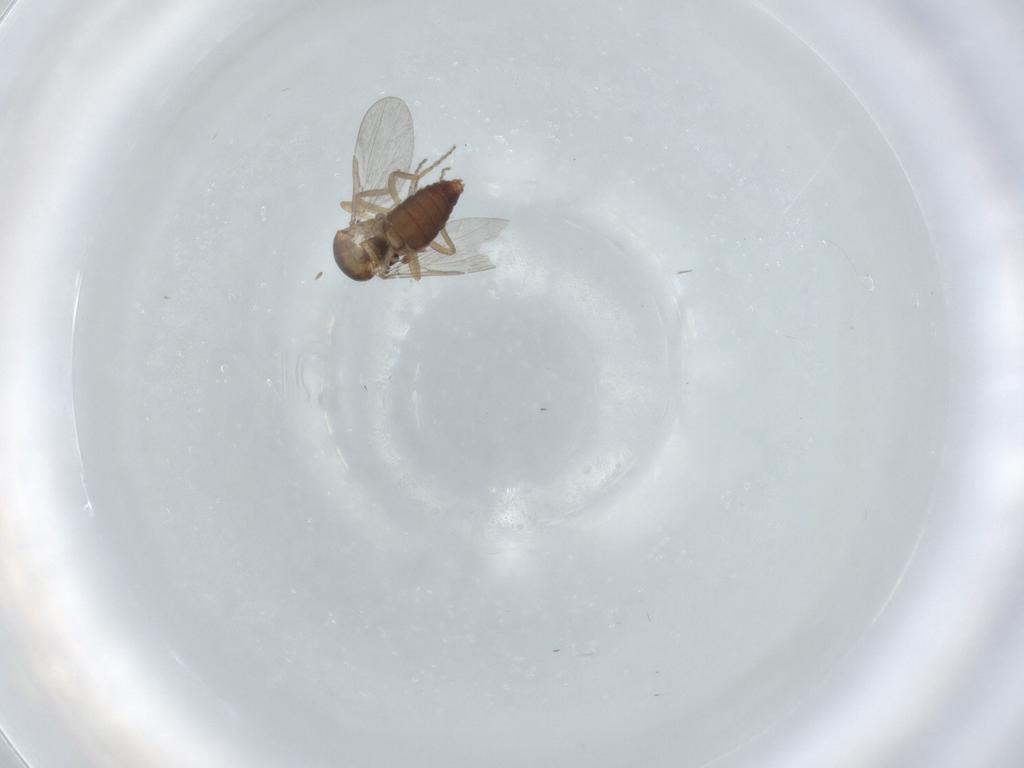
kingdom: Animalia
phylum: Arthropoda
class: Insecta
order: Diptera
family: Ceratopogonidae
